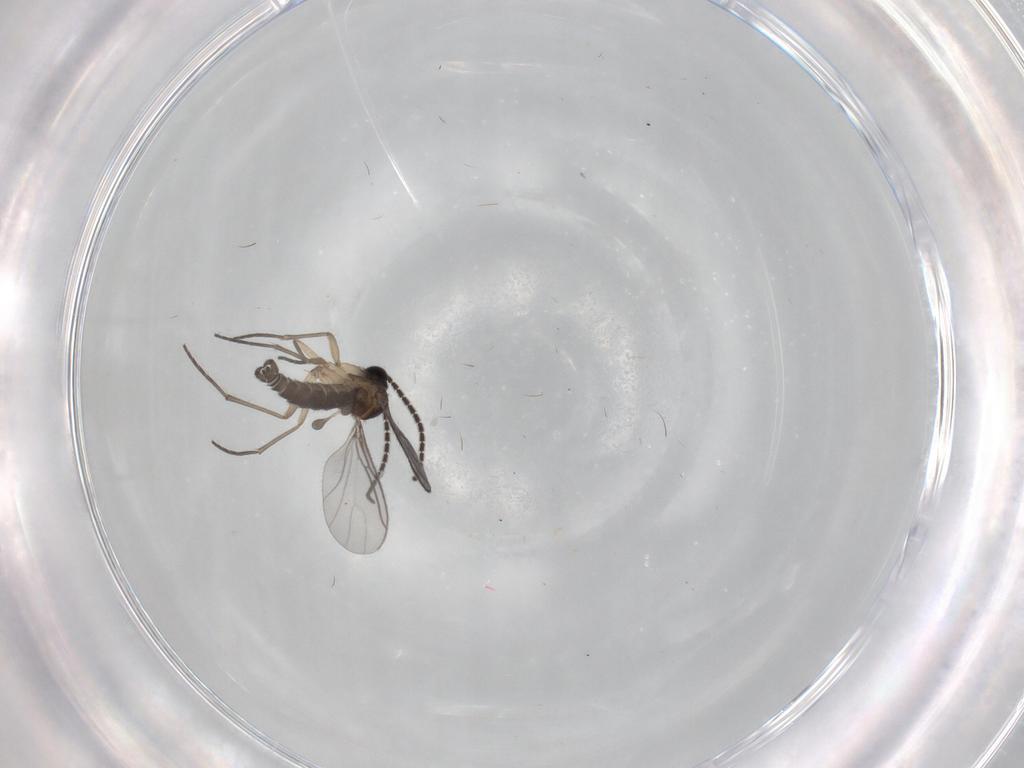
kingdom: Animalia
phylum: Arthropoda
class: Insecta
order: Diptera
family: Sciaridae
